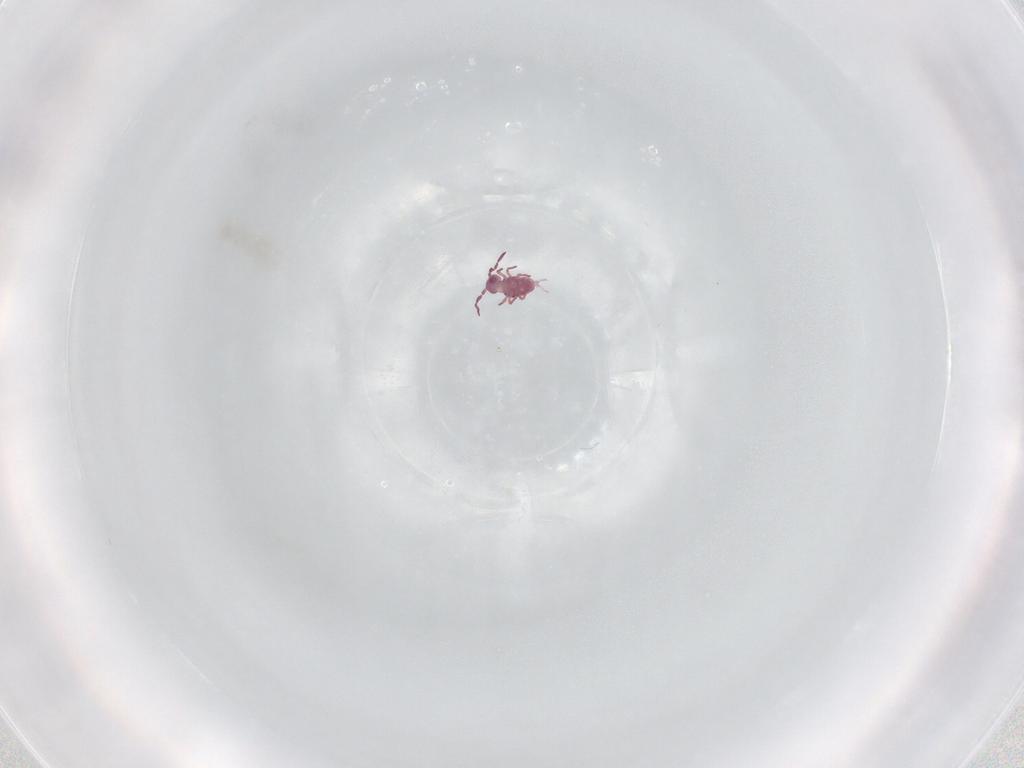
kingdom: Animalia
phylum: Arthropoda
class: Collembola
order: Symphypleona
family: Sminthurididae
